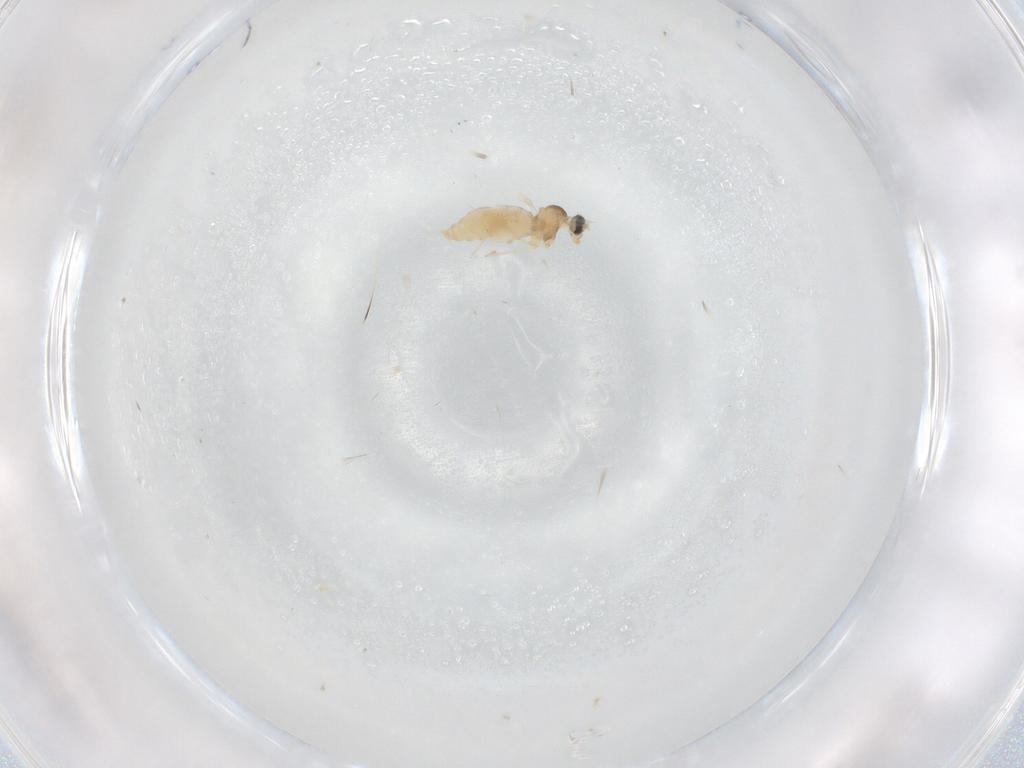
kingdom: Animalia
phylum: Arthropoda
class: Insecta
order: Diptera
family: Cecidomyiidae
